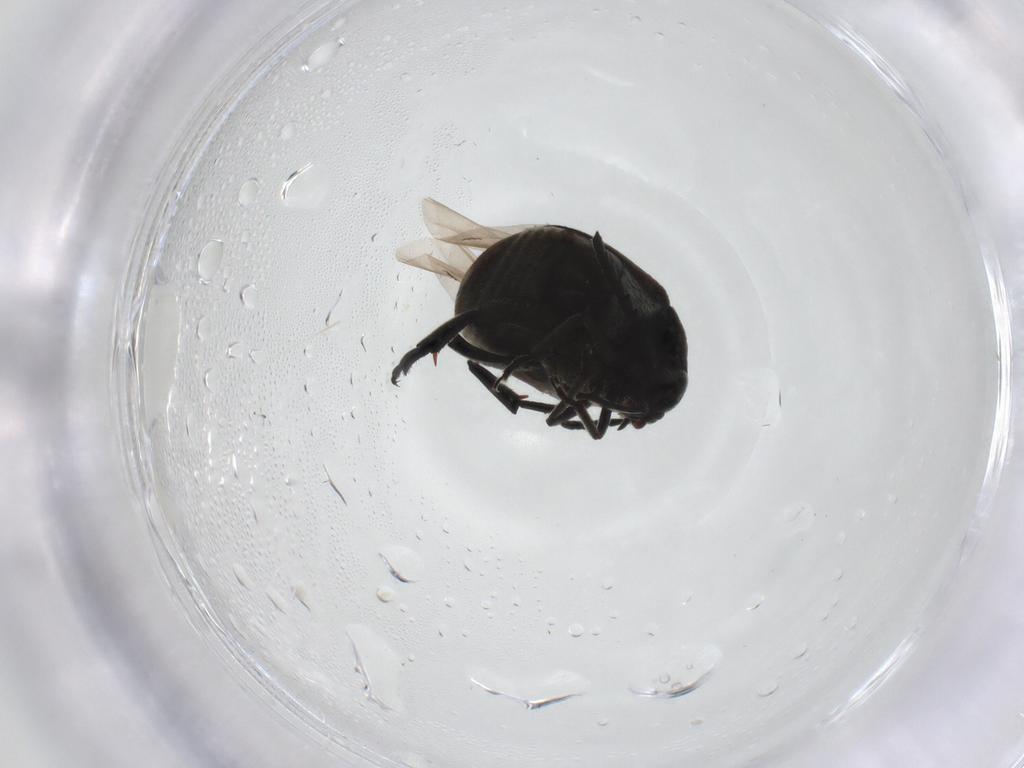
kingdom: Animalia
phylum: Arthropoda
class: Insecta
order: Coleoptera
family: Chrysomelidae
